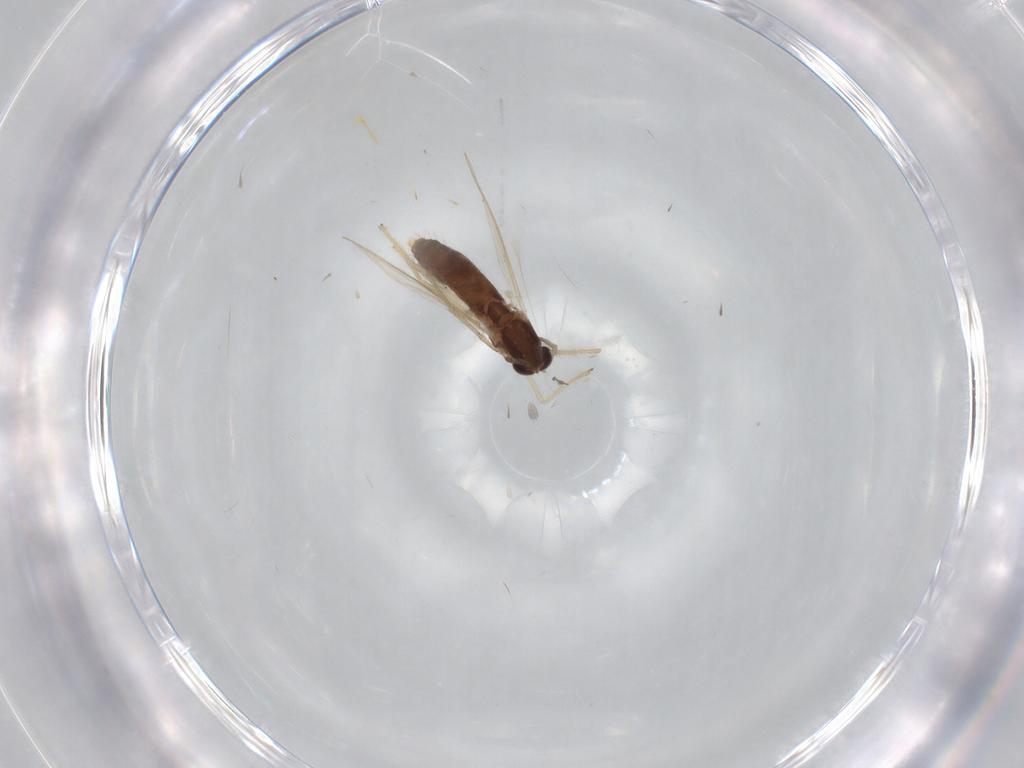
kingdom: Animalia
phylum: Arthropoda
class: Insecta
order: Diptera
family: Chironomidae
